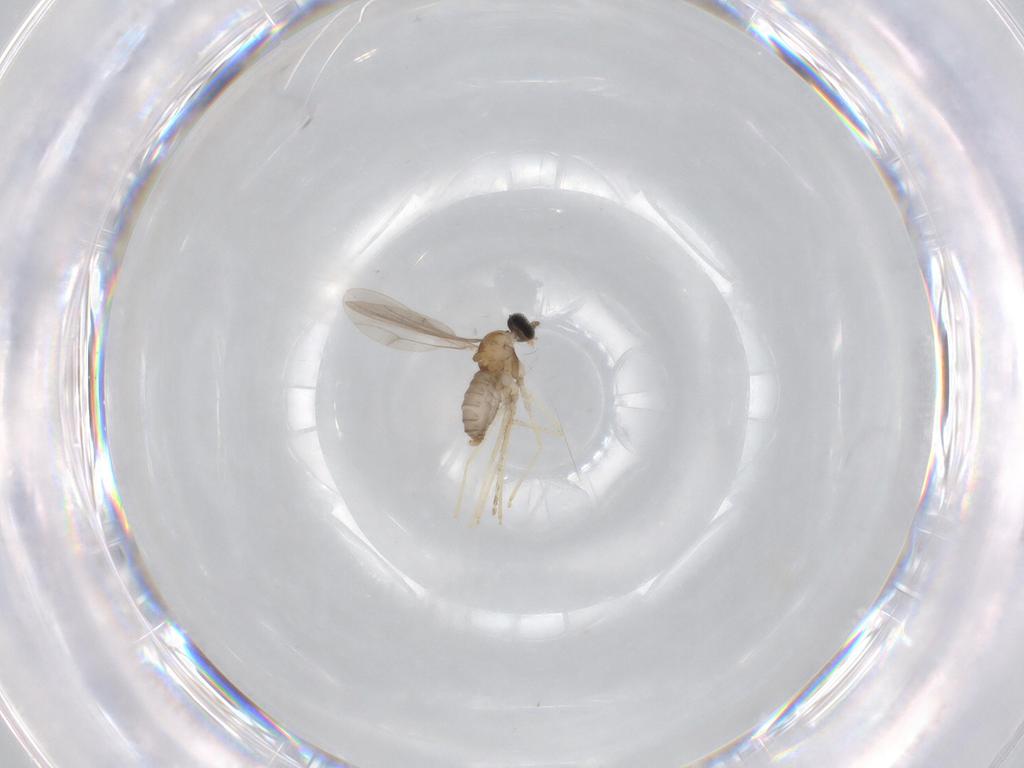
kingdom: Animalia
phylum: Arthropoda
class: Insecta
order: Diptera
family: Cecidomyiidae
